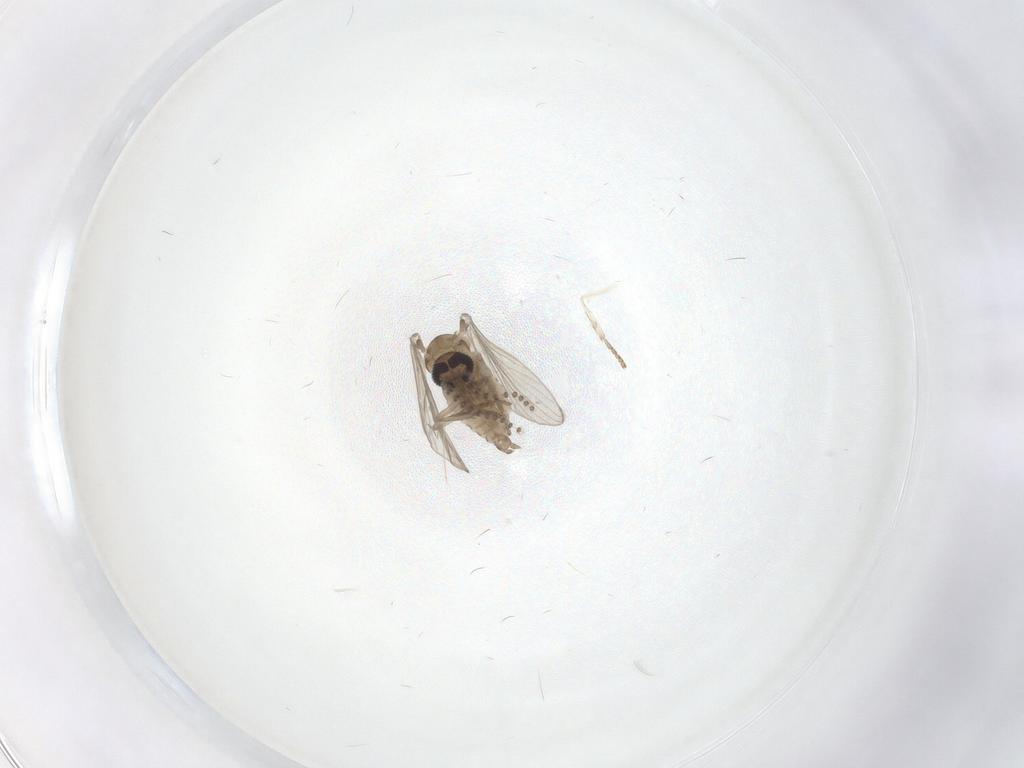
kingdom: Animalia
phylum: Arthropoda
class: Insecta
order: Diptera
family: Psychodidae
